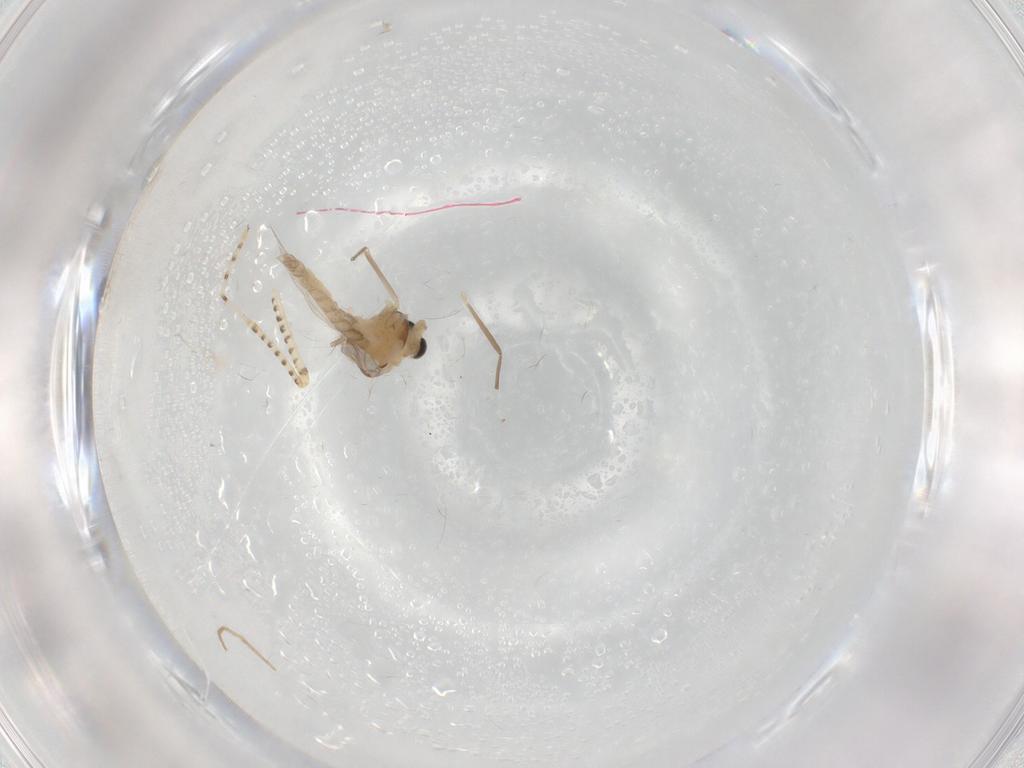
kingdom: Animalia
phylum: Arthropoda
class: Insecta
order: Diptera
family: Chaoboridae
